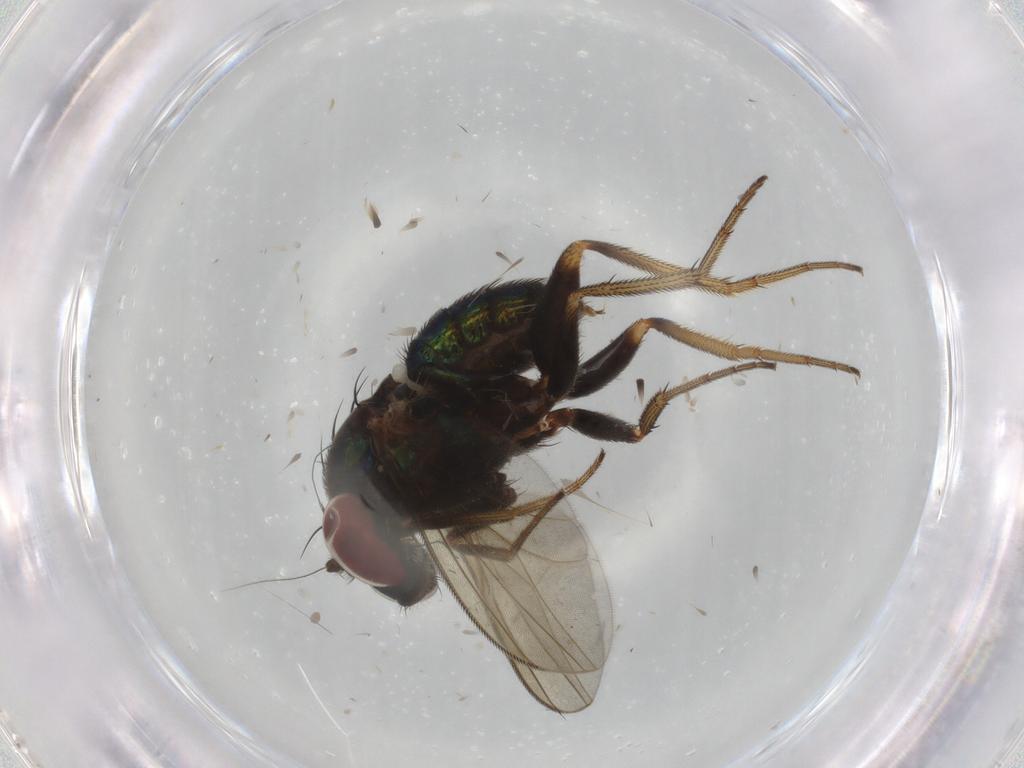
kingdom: Animalia
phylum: Arthropoda
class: Insecta
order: Diptera
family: Dolichopodidae
